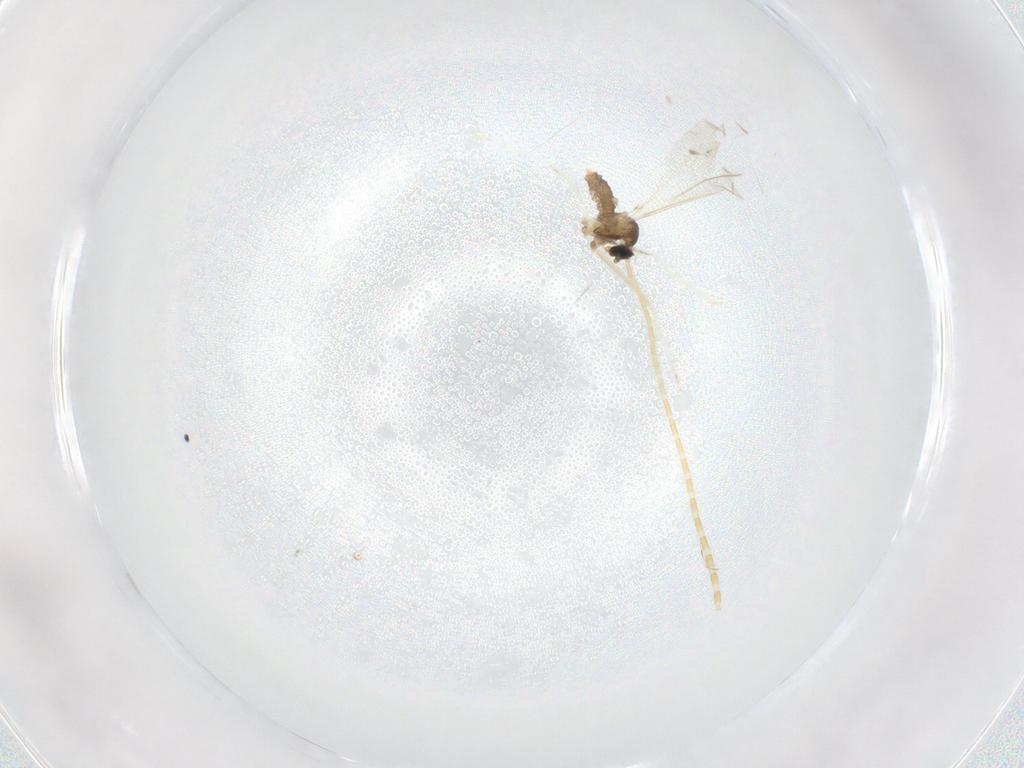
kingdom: Animalia
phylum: Arthropoda
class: Insecta
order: Diptera
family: Cecidomyiidae
